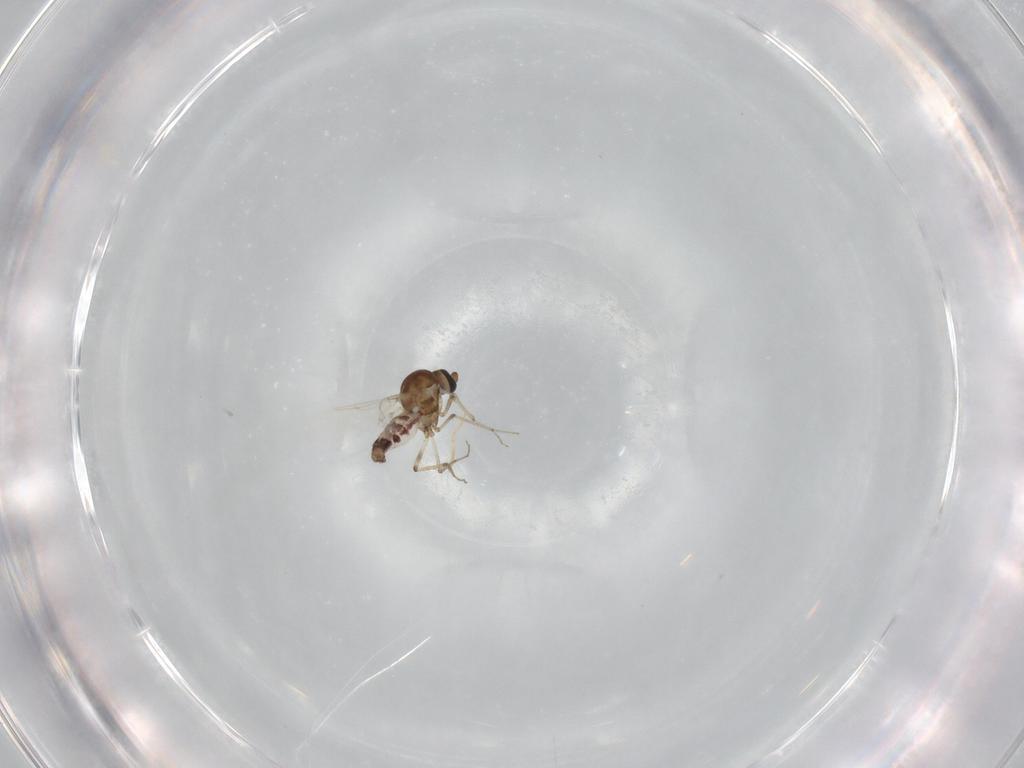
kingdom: Animalia
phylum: Arthropoda
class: Insecta
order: Diptera
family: Ceratopogonidae
